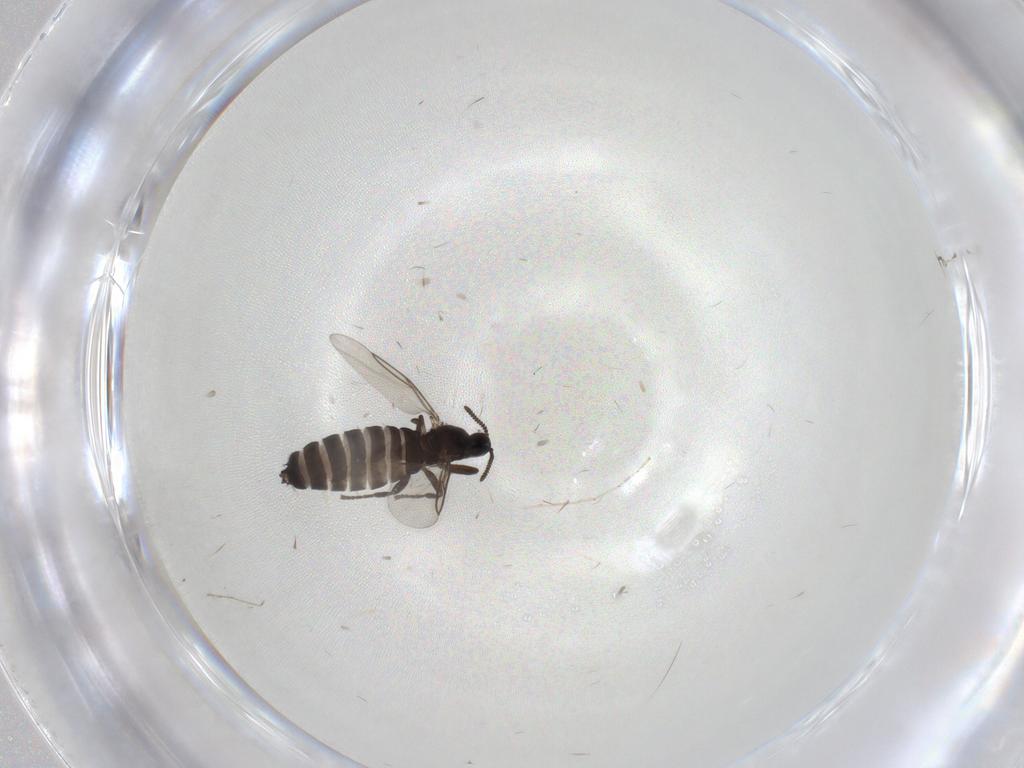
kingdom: Animalia
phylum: Arthropoda
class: Insecta
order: Diptera
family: Scatopsidae
